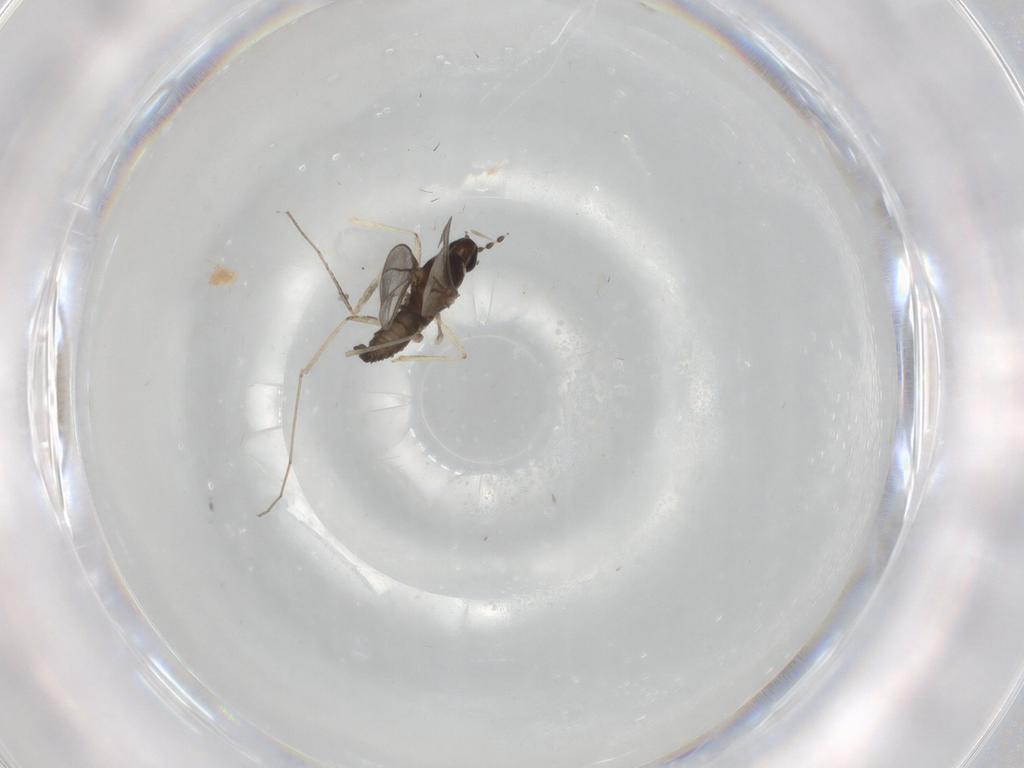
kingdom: Animalia
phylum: Arthropoda
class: Insecta
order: Diptera
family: Cecidomyiidae
